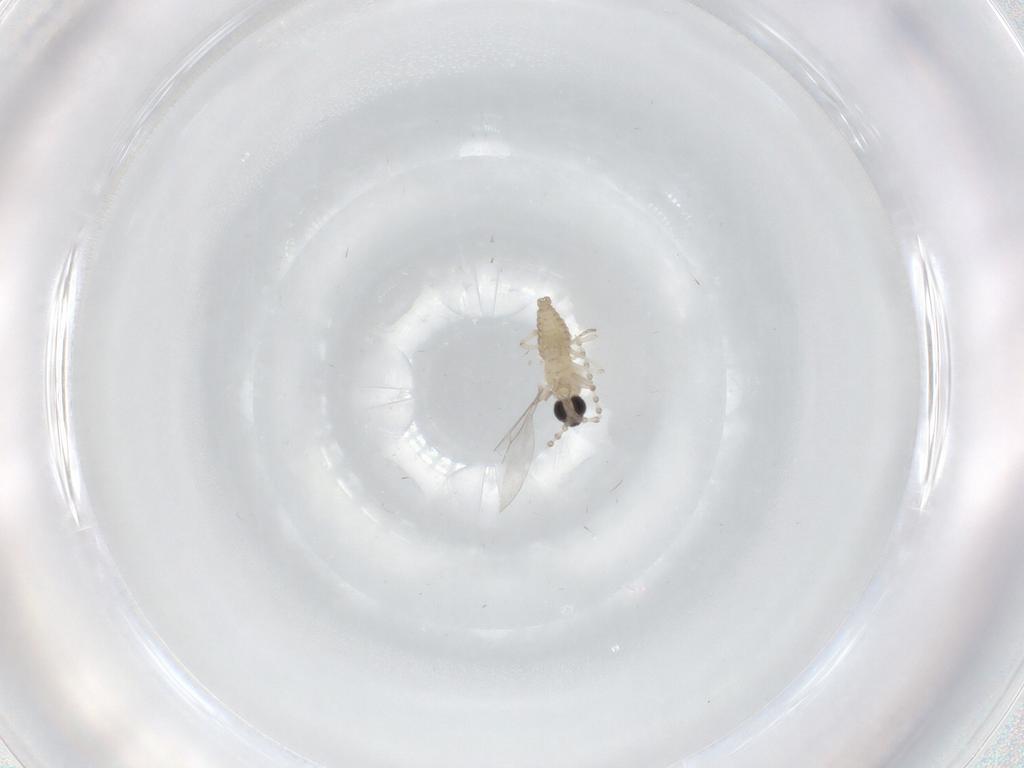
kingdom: Animalia
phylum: Arthropoda
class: Insecta
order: Diptera
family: Cecidomyiidae
